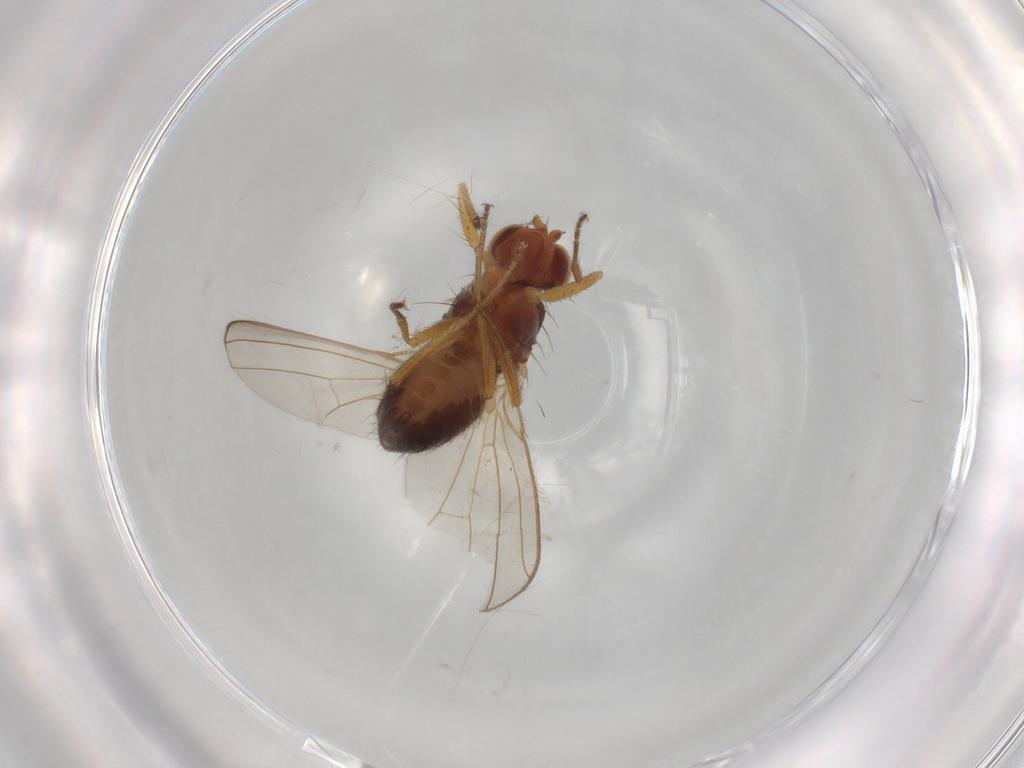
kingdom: Animalia
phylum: Arthropoda
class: Insecta
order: Diptera
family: Drosophilidae
